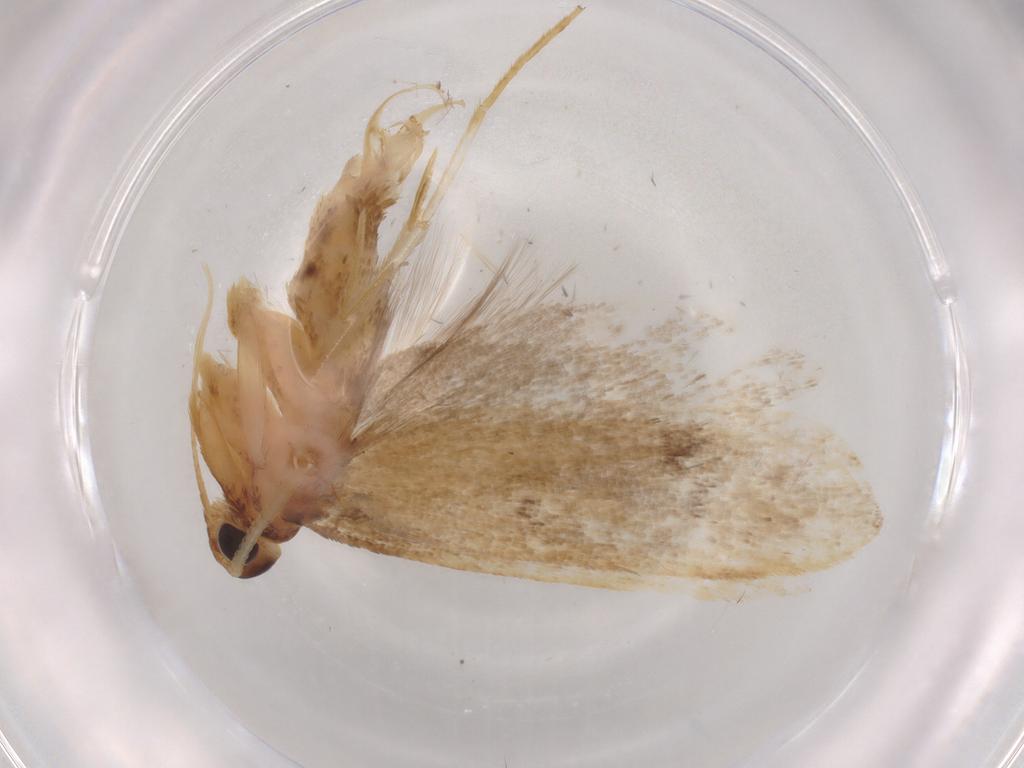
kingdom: Animalia
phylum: Arthropoda
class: Insecta
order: Lepidoptera
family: Lecithoceridae
